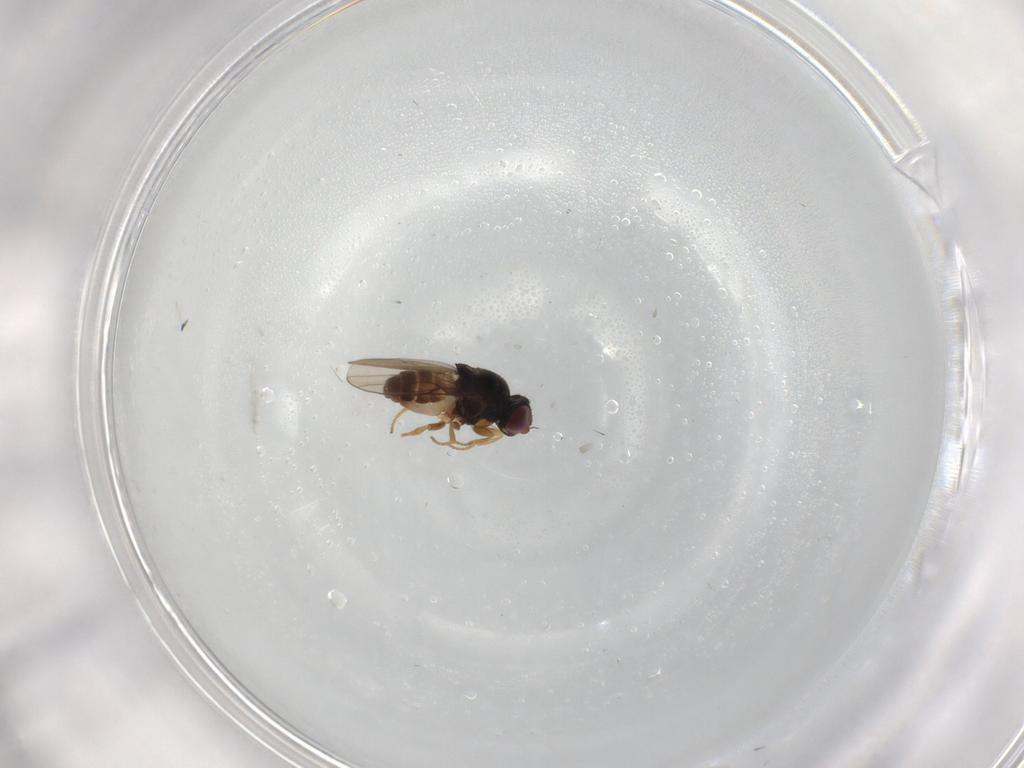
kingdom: Animalia
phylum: Arthropoda
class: Insecta
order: Diptera
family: Chloropidae
